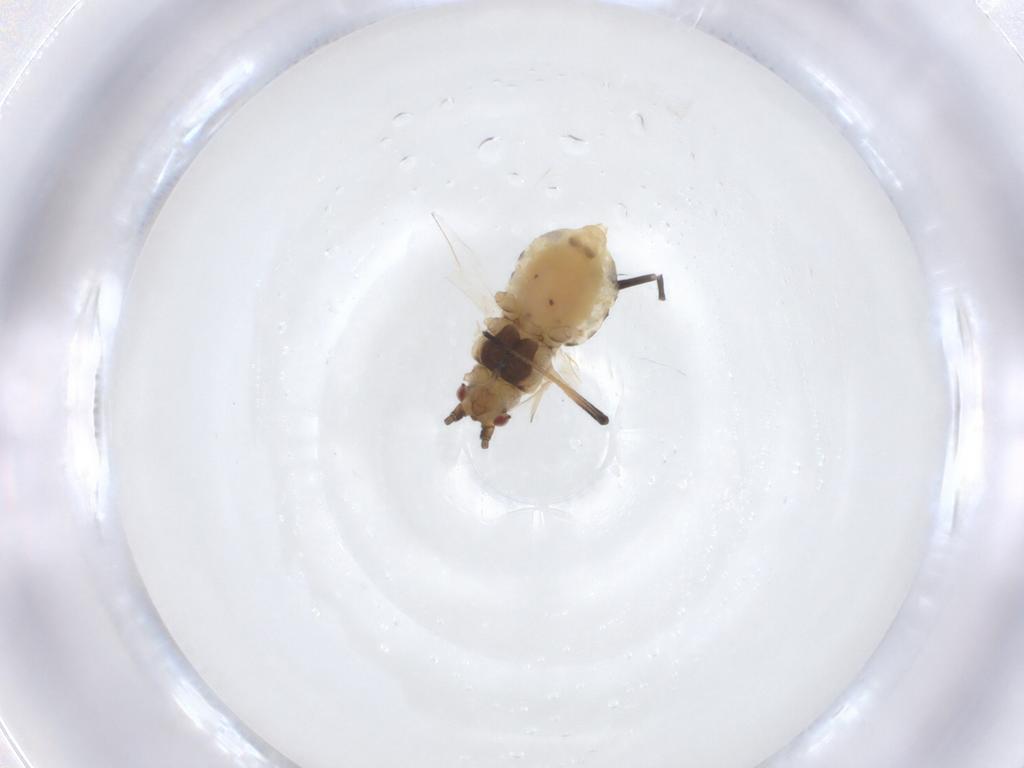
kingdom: Animalia
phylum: Arthropoda
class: Insecta
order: Hemiptera
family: Aphididae
